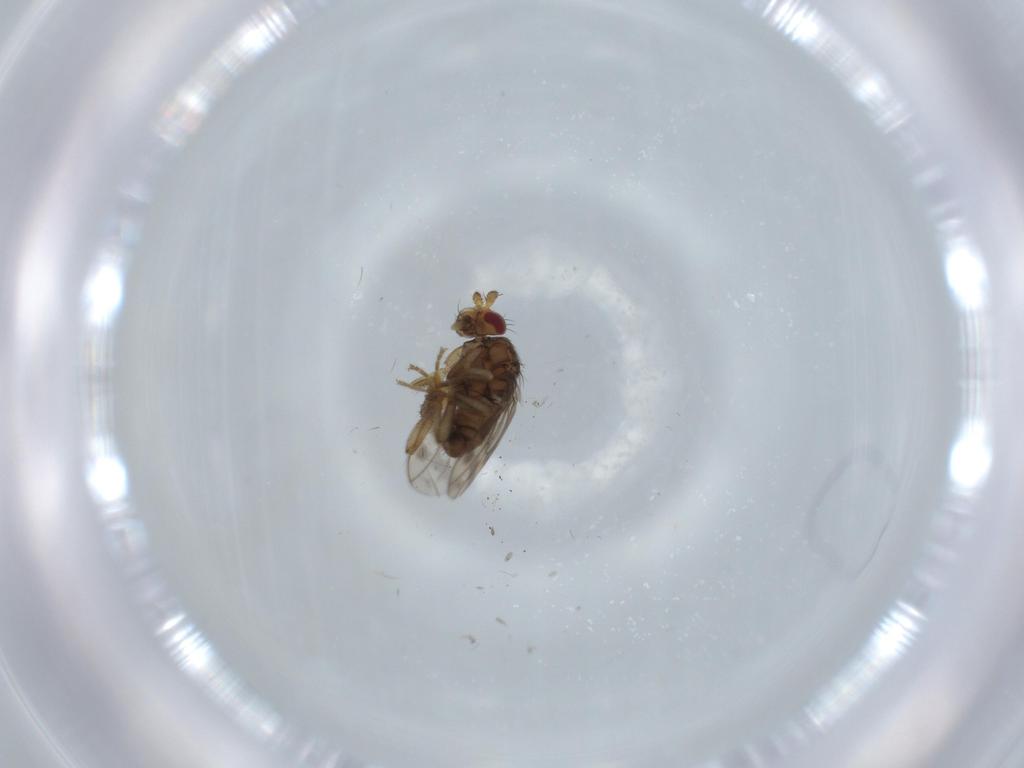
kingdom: Animalia
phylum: Arthropoda
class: Insecta
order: Diptera
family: Sphaeroceridae
